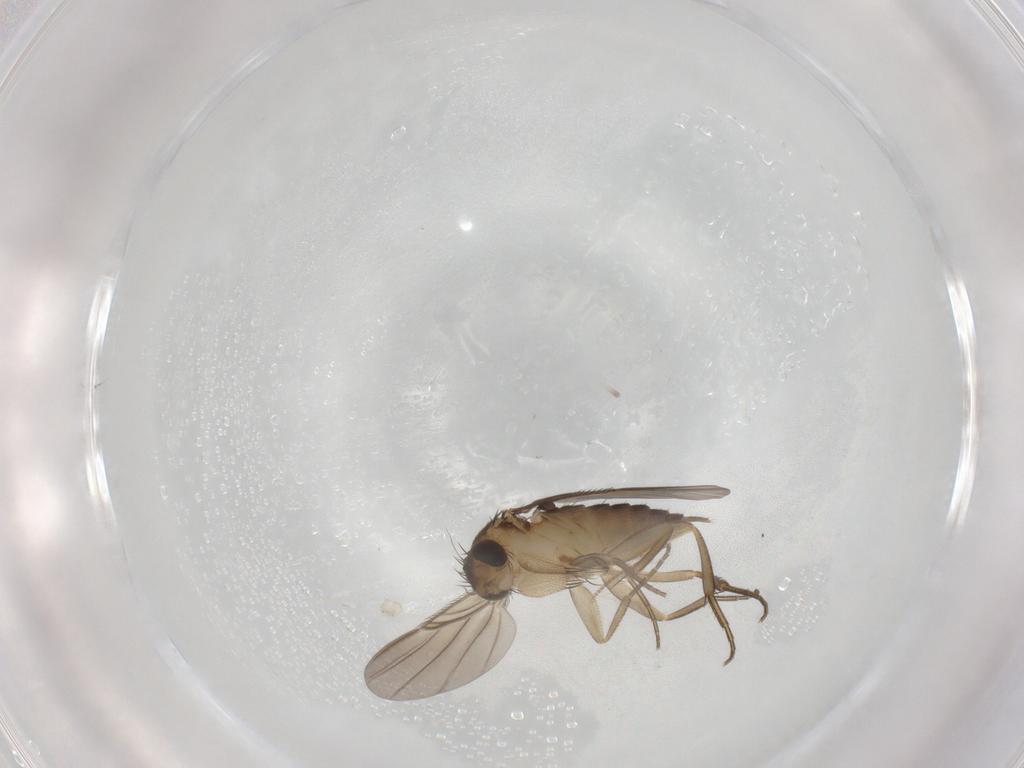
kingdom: Animalia
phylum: Arthropoda
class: Insecta
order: Diptera
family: Phoridae
